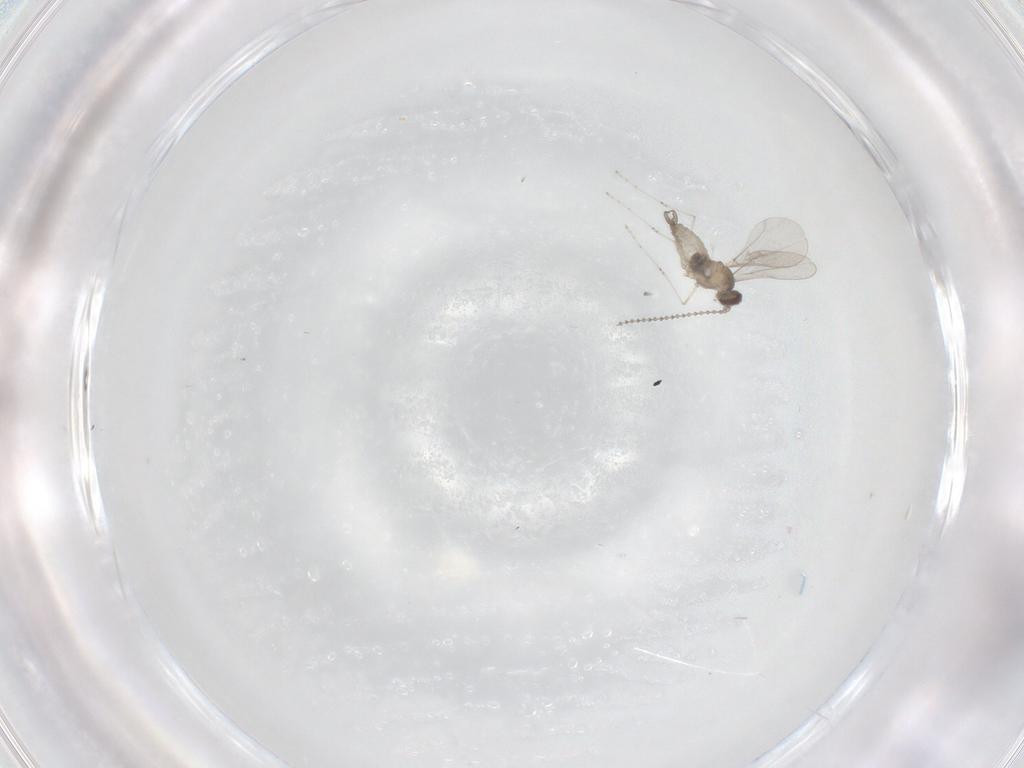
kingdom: Animalia
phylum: Arthropoda
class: Insecta
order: Diptera
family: Cecidomyiidae
